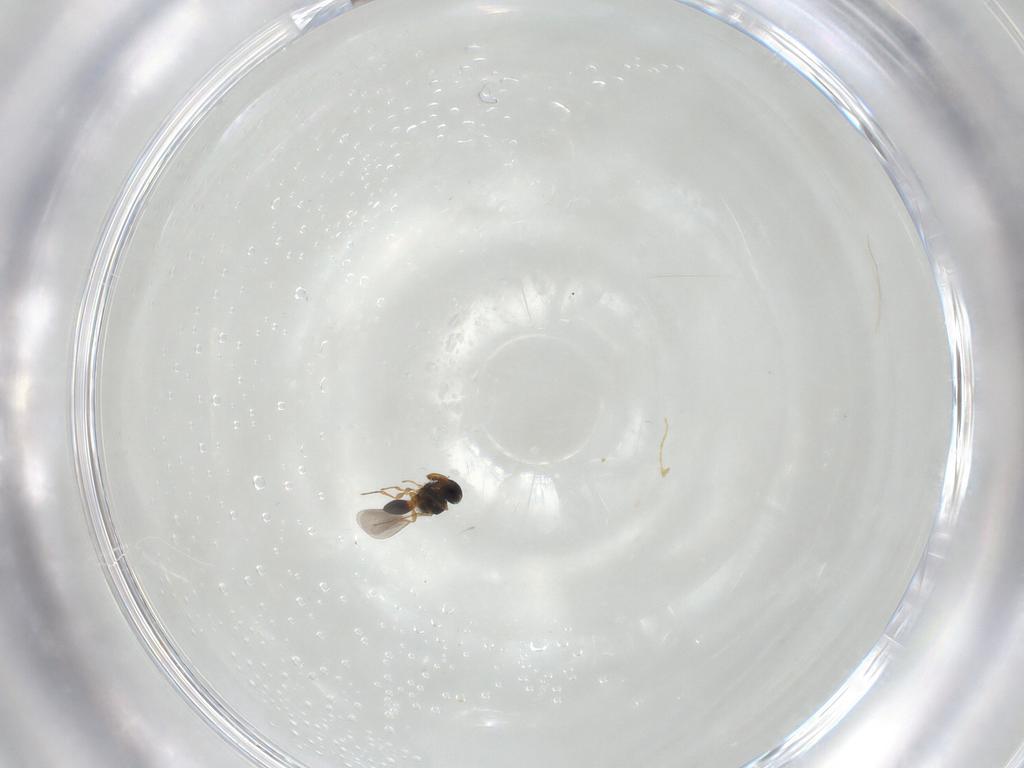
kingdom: Animalia
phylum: Arthropoda
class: Insecta
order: Hymenoptera
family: Platygastridae
